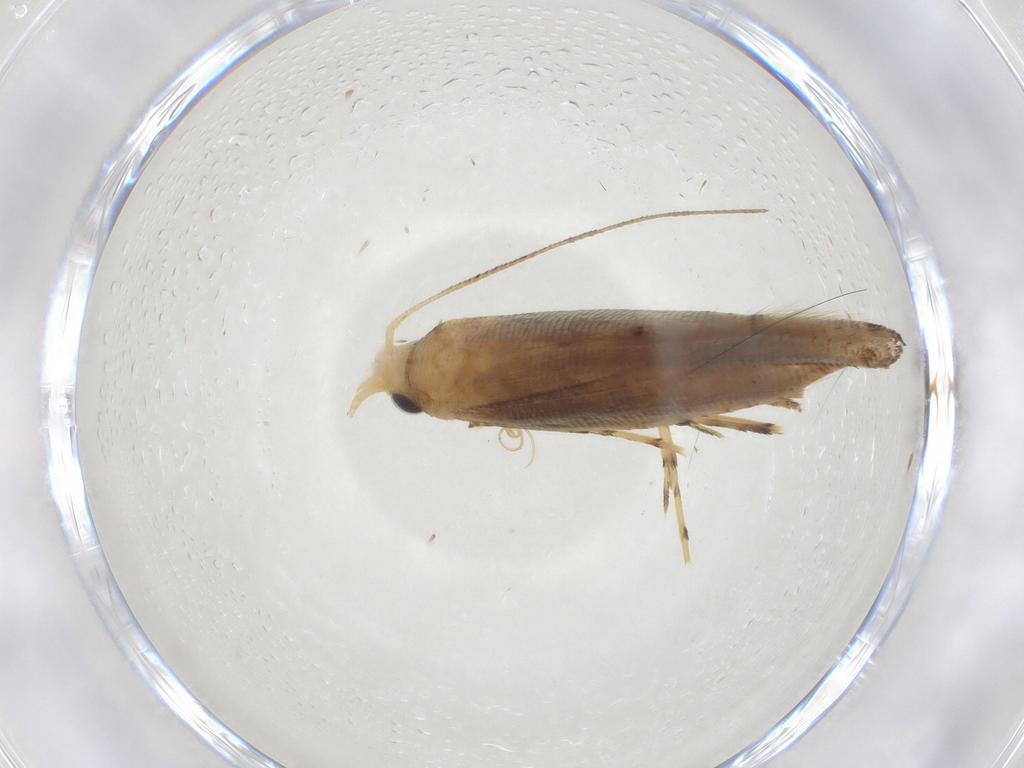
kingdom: Animalia
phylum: Arthropoda
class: Insecta
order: Lepidoptera
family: Argyresthiidae
